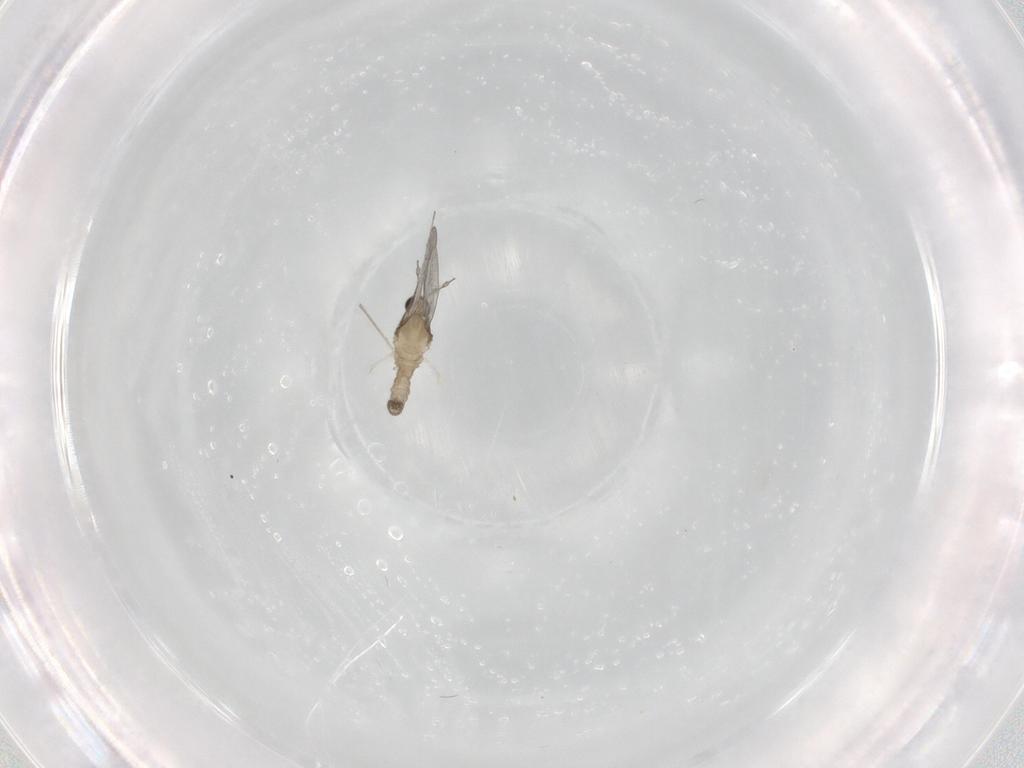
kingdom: Animalia
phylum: Arthropoda
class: Insecta
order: Diptera
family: Cecidomyiidae
